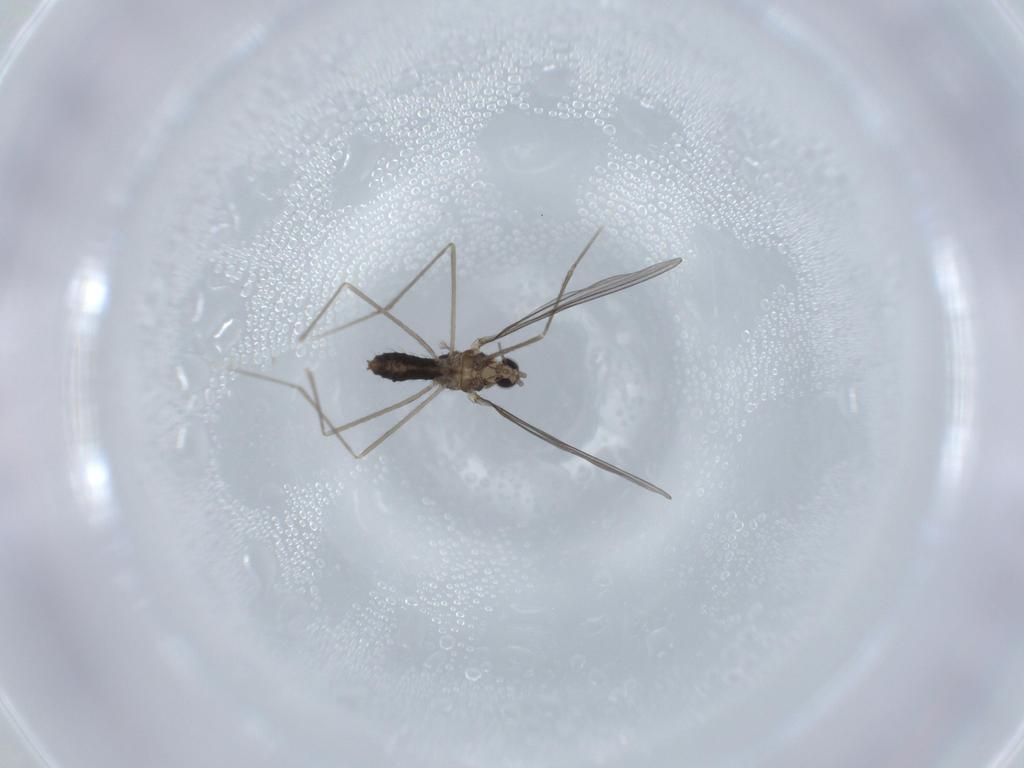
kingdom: Animalia
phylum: Arthropoda
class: Insecta
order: Diptera
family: Cecidomyiidae
